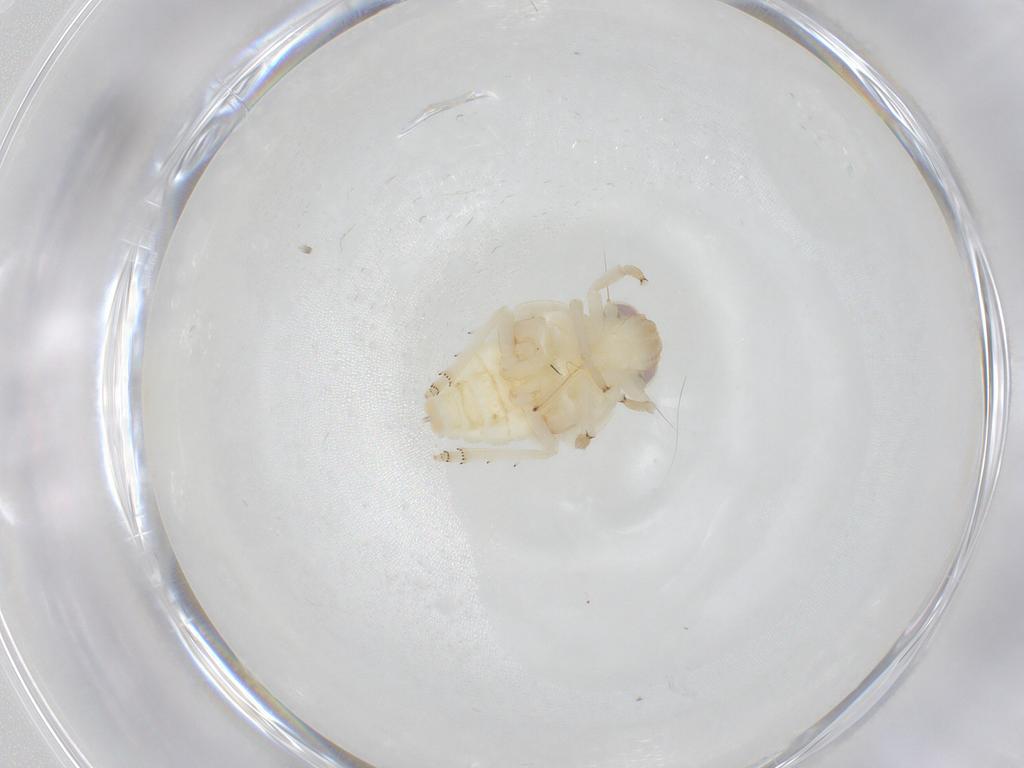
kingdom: Animalia
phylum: Arthropoda
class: Insecta
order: Hemiptera
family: Nogodinidae
